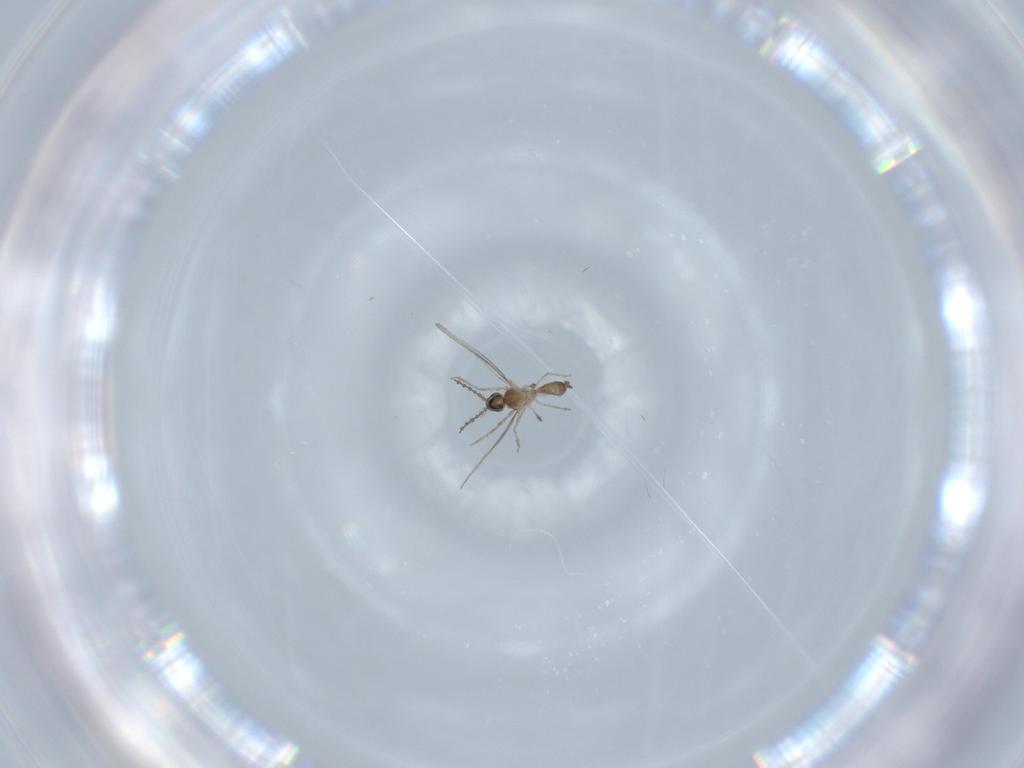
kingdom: Animalia
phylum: Arthropoda
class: Insecta
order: Diptera
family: Cecidomyiidae
